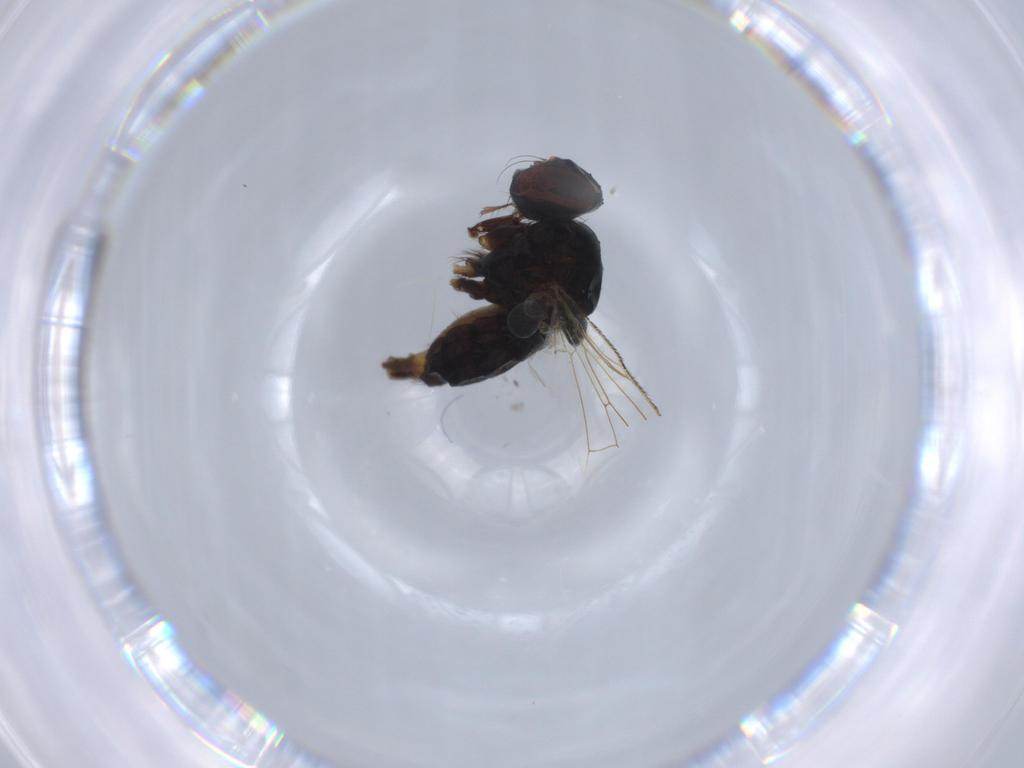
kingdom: Animalia
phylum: Arthropoda
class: Insecta
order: Diptera
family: Chironomidae
